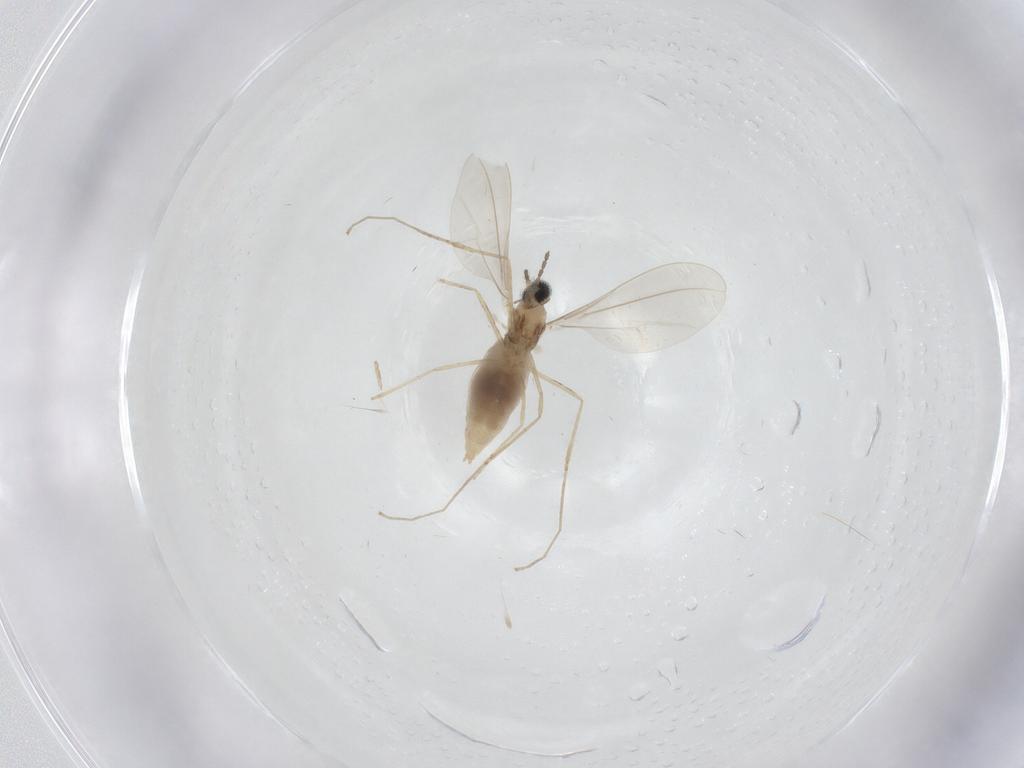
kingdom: Animalia
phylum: Arthropoda
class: Insecta
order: Diptera
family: Cecidomyiidae
